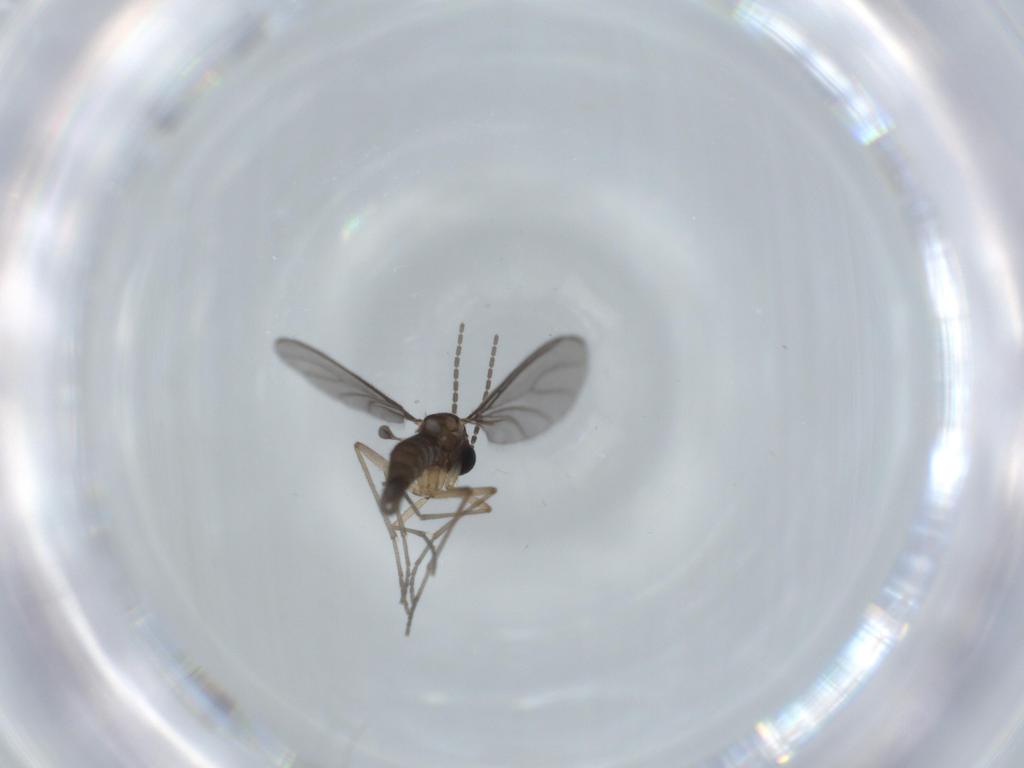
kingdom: Animalia
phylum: Arthropoda
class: Insecta
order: Diptera
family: Sciaridae
